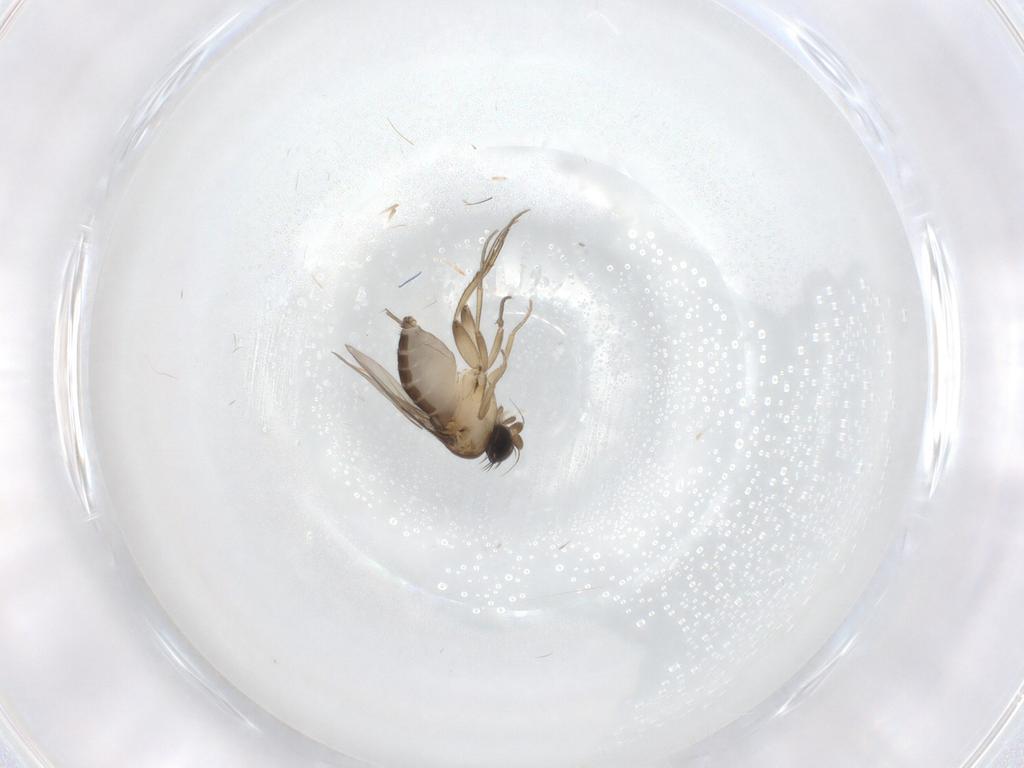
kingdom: Animalia
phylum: Arthropoda
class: Insecta
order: Diptera
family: Phoridae
